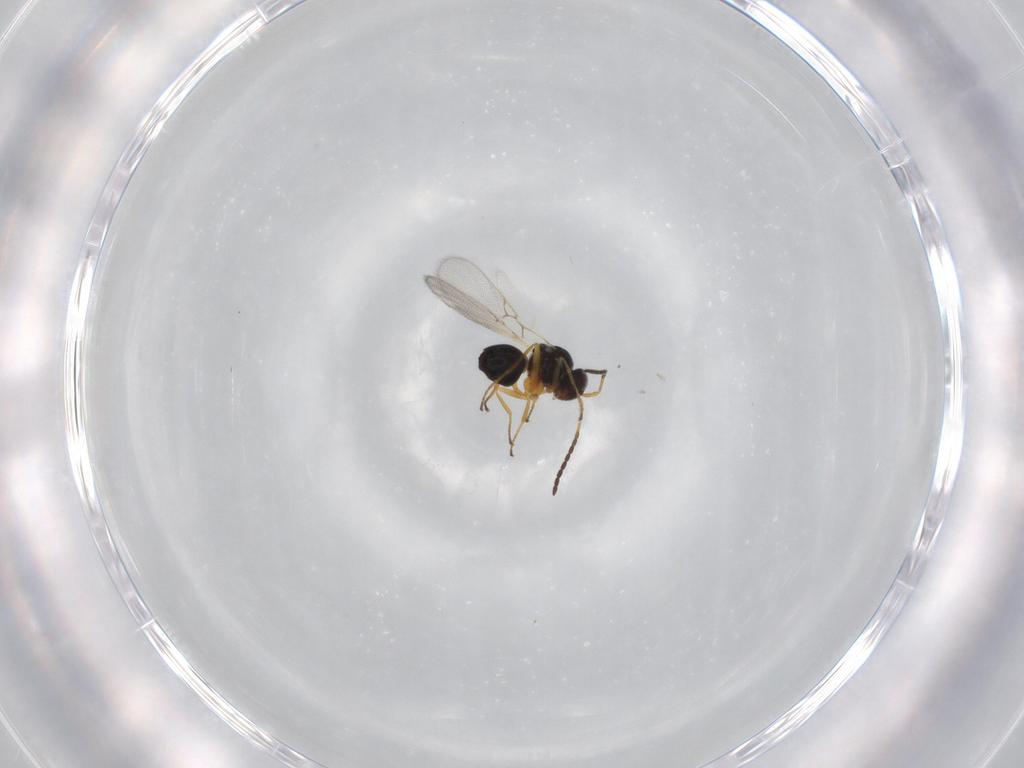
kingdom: Animalia
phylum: Arthropoda
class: Insecta
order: Hymenoptera
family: Figitidae
